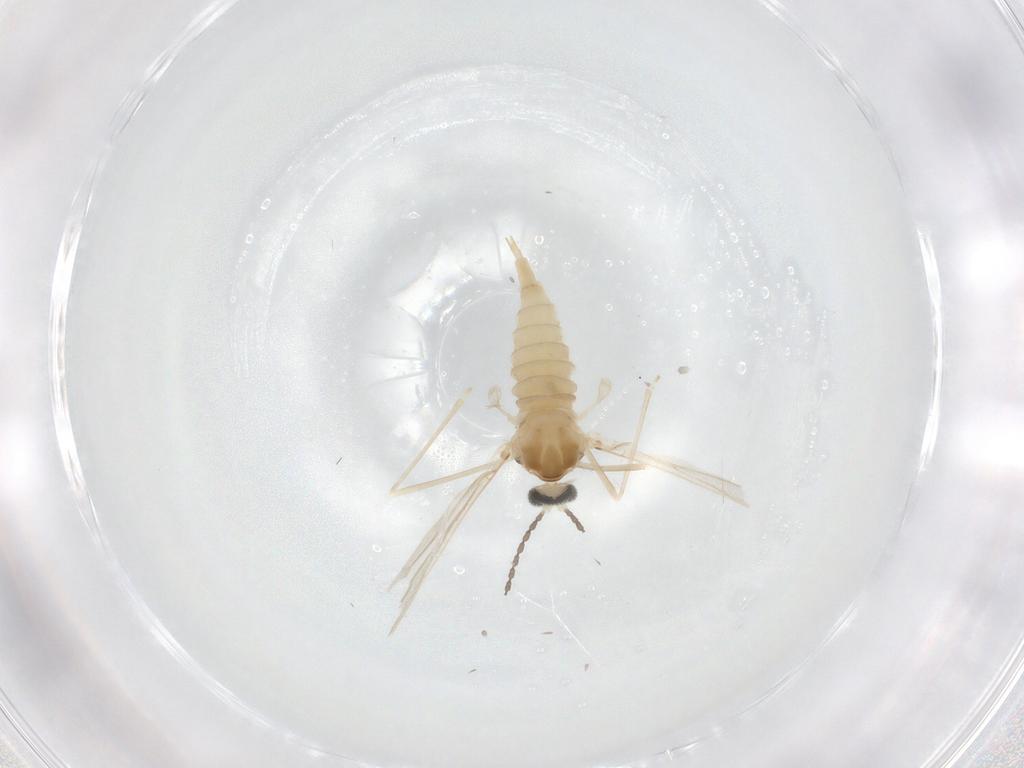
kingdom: Animalia
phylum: Arthropoda
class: Insecta
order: Diptera
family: Cecidomyiidae
